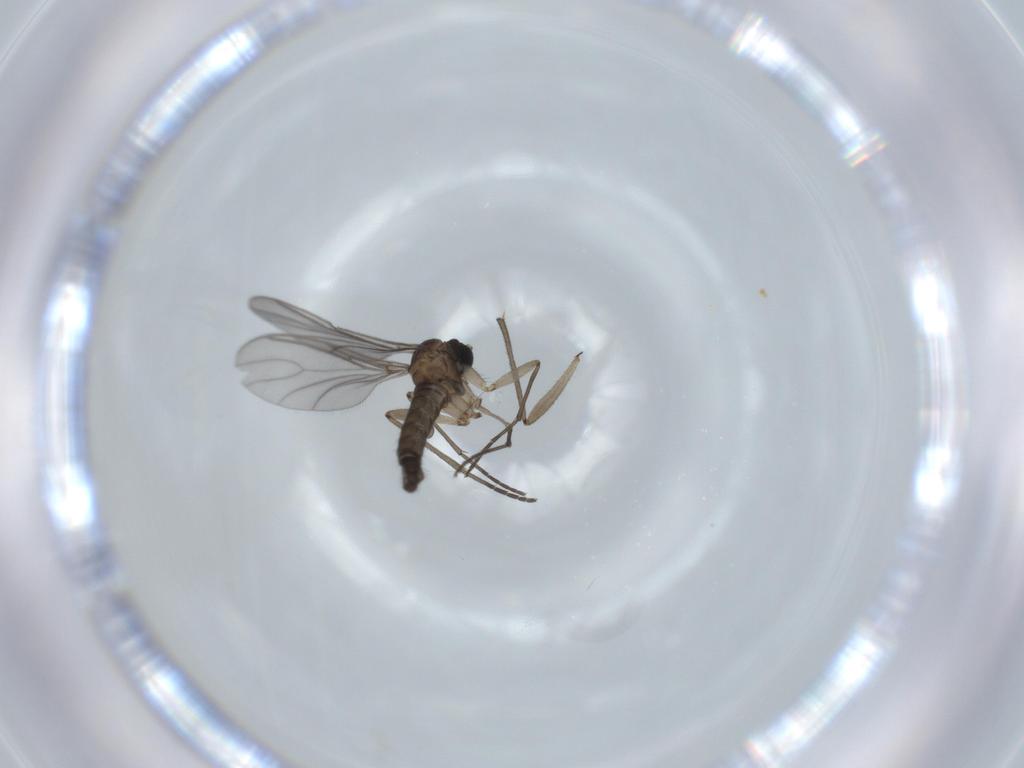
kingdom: Animalia
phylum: Arthropoda
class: Insecta
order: Diptera
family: Sciaridae
